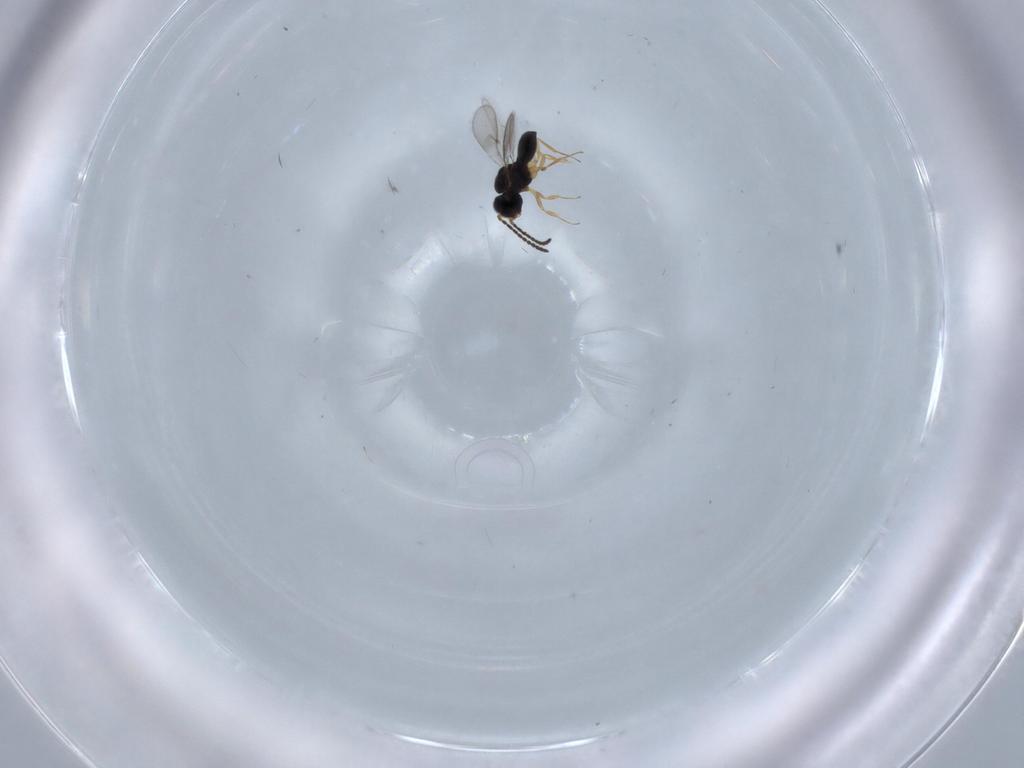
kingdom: Animalia
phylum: Arthropoda
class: Insecta
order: Hymenoptera
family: Scelionidae
